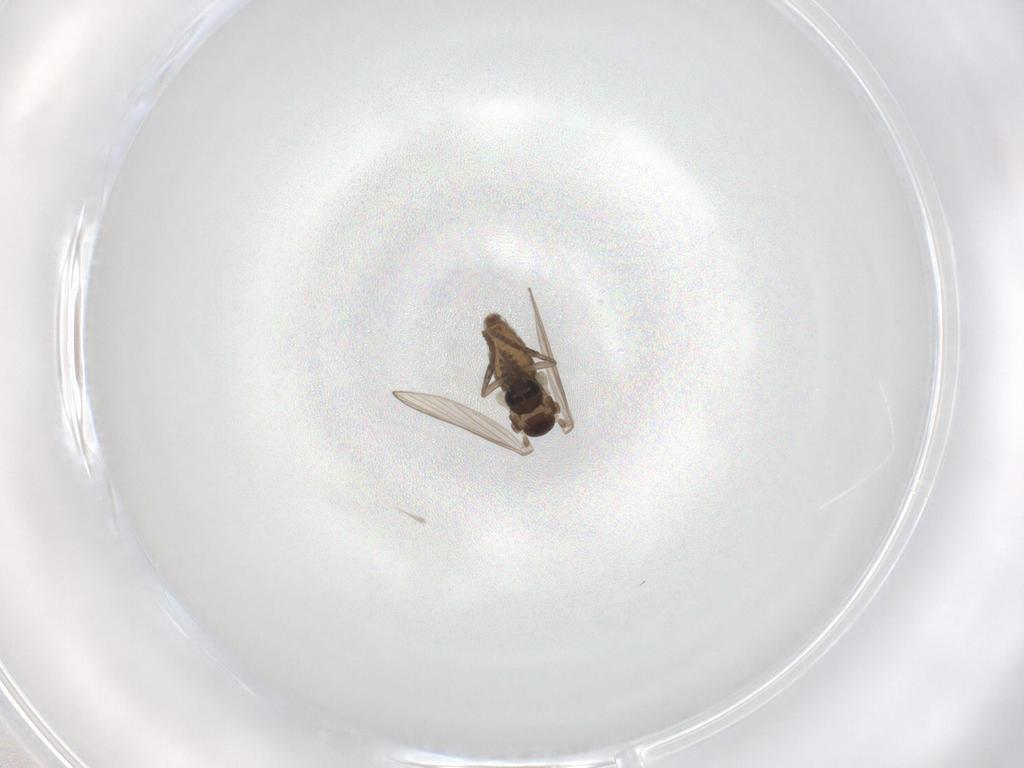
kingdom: Animalia
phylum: Arthropoda
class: Insecta
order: Diptera
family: Psychodidae
